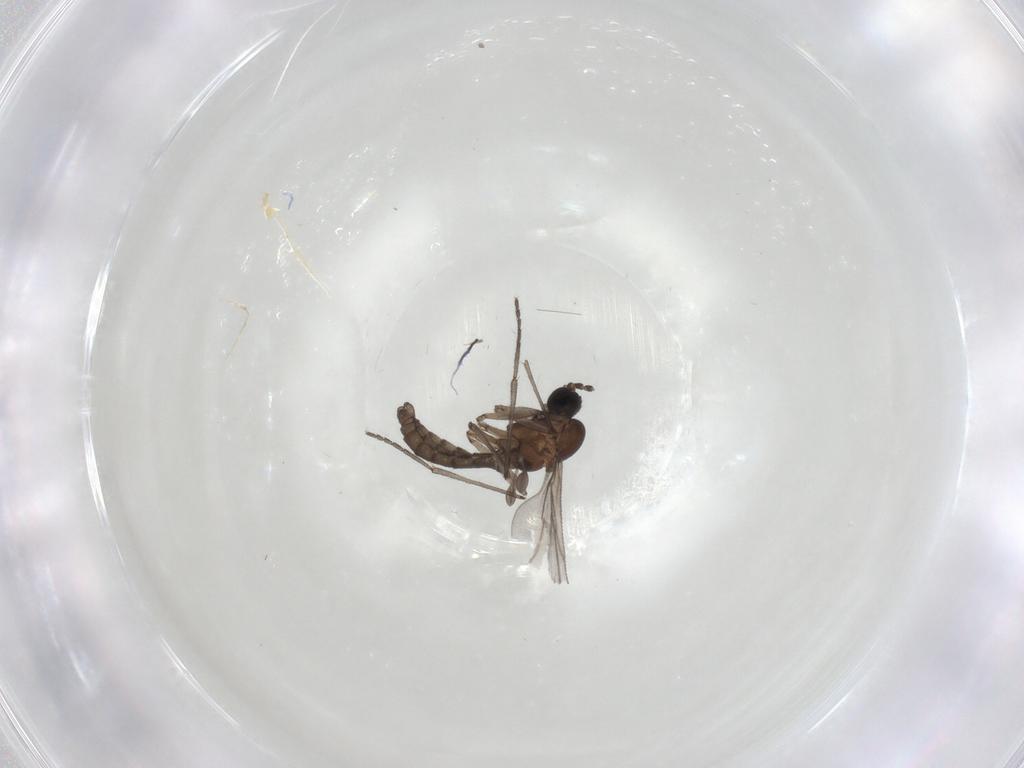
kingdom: Animalia
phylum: Arthropoda
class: Insecta
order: Diptera
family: Sciaridae
